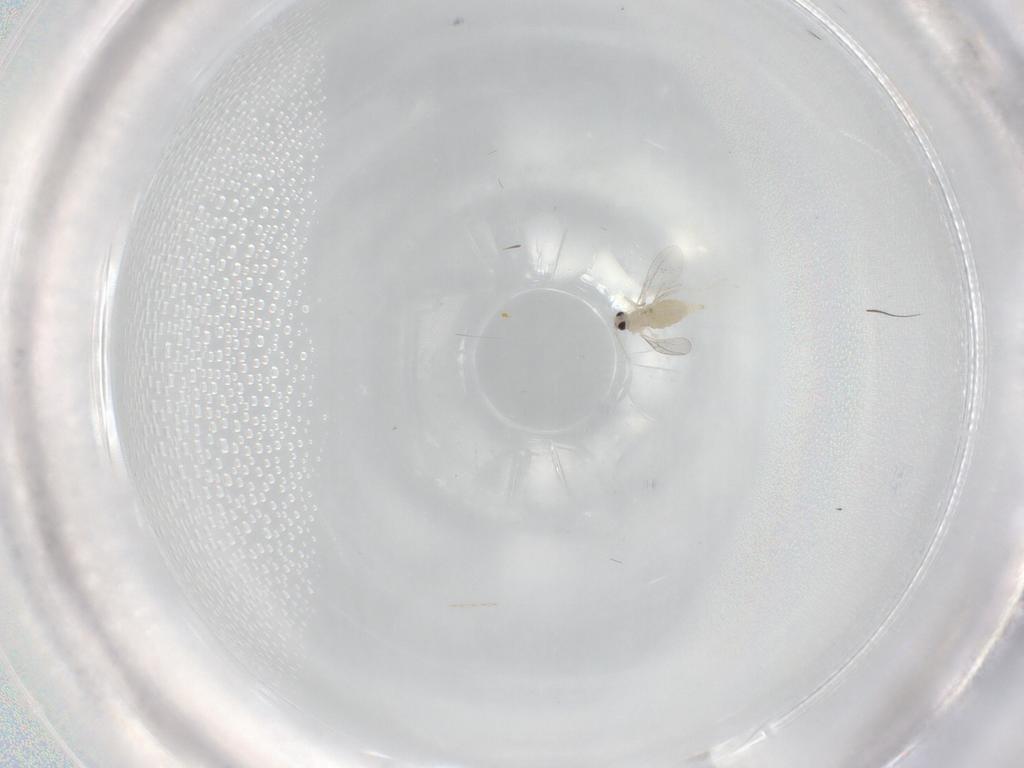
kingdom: Animalia
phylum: Arthropoda
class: Insecta
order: Diptera
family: Cecidomyiidae
